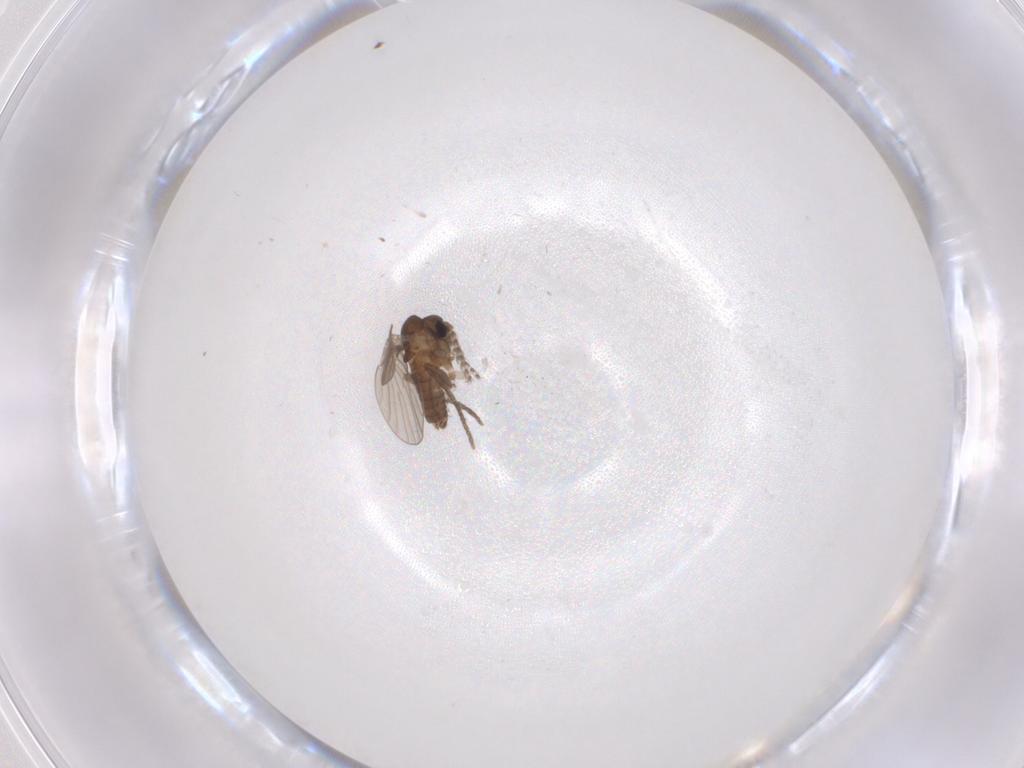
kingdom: Animalia
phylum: Arthropoda
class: Insecta
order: Diptera
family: Psychodidae
